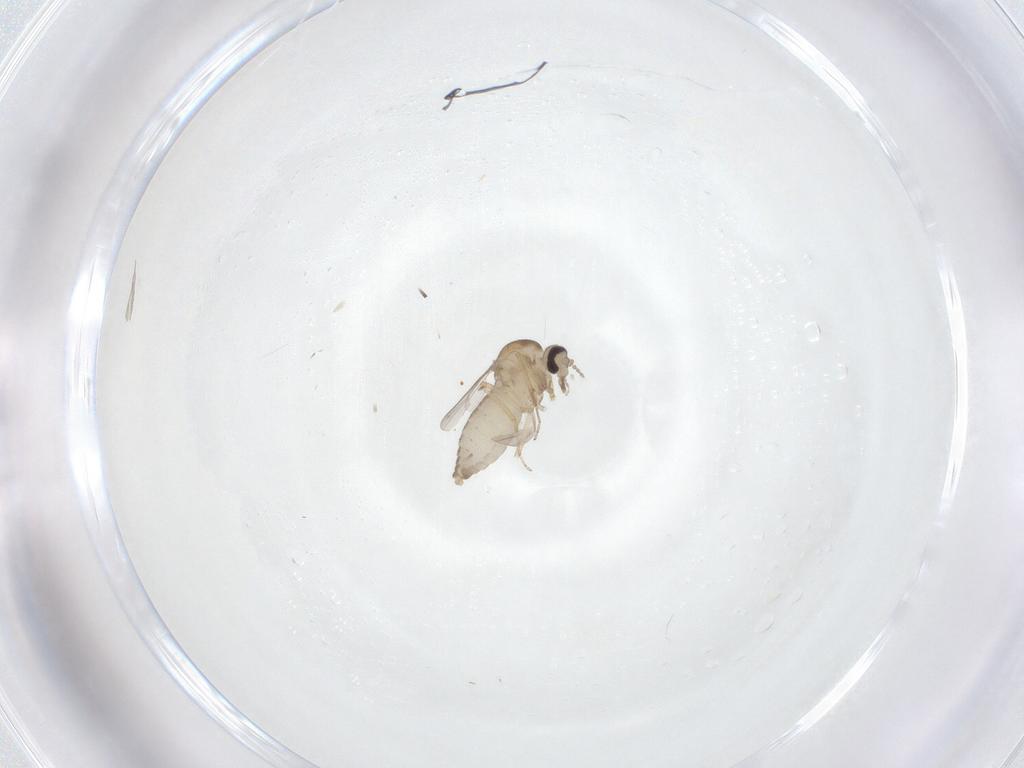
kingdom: Animalia
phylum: Arthropoda
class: Insecta
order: Diptera
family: Ceratopogonidae
